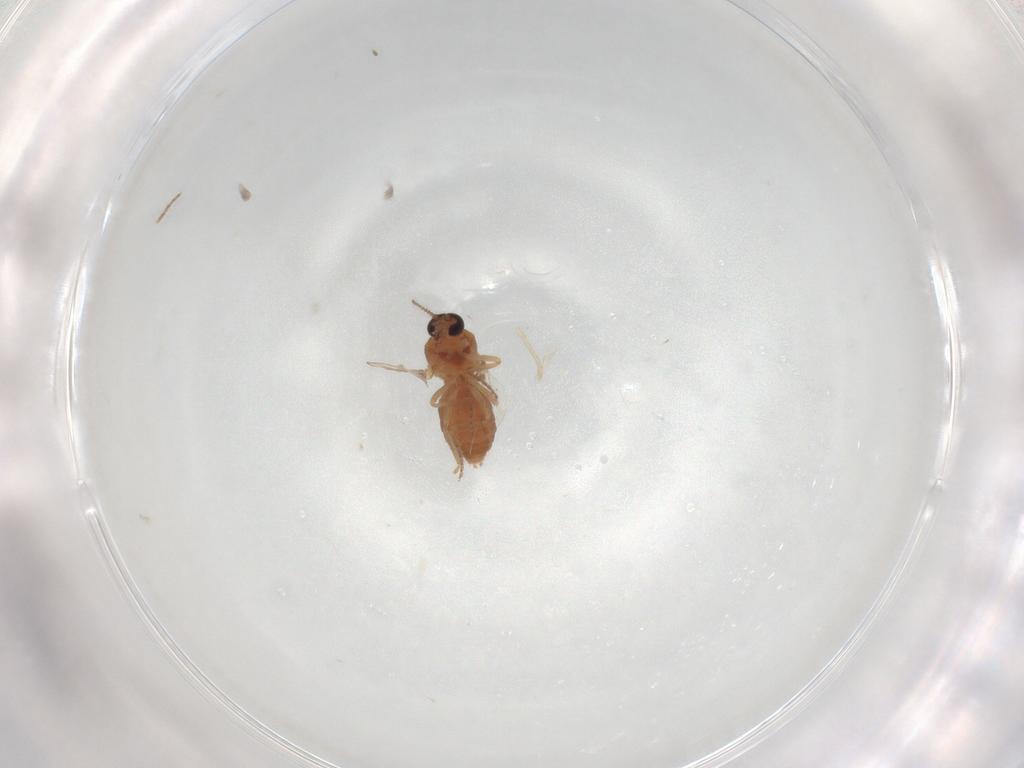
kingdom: Animalia
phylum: Arthropoda
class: Insecta
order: Diptera
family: Ceratopogonidae
